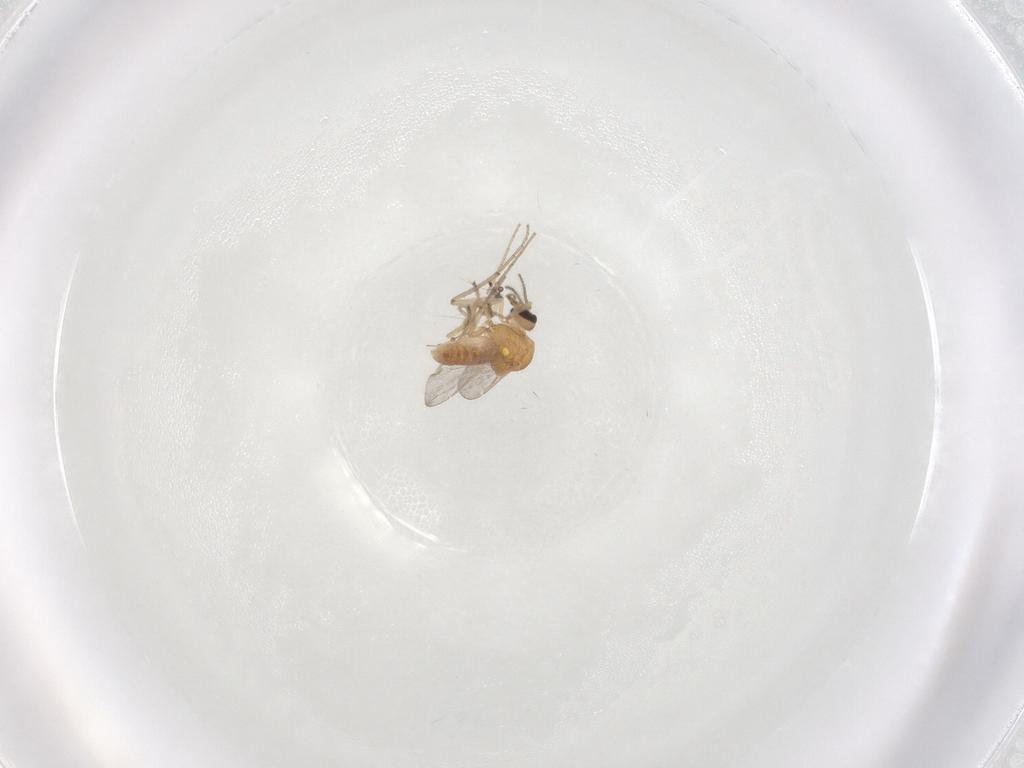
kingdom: Animalia
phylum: Arthropoda
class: Insecta
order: Diptera
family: Ceratopogonidae
